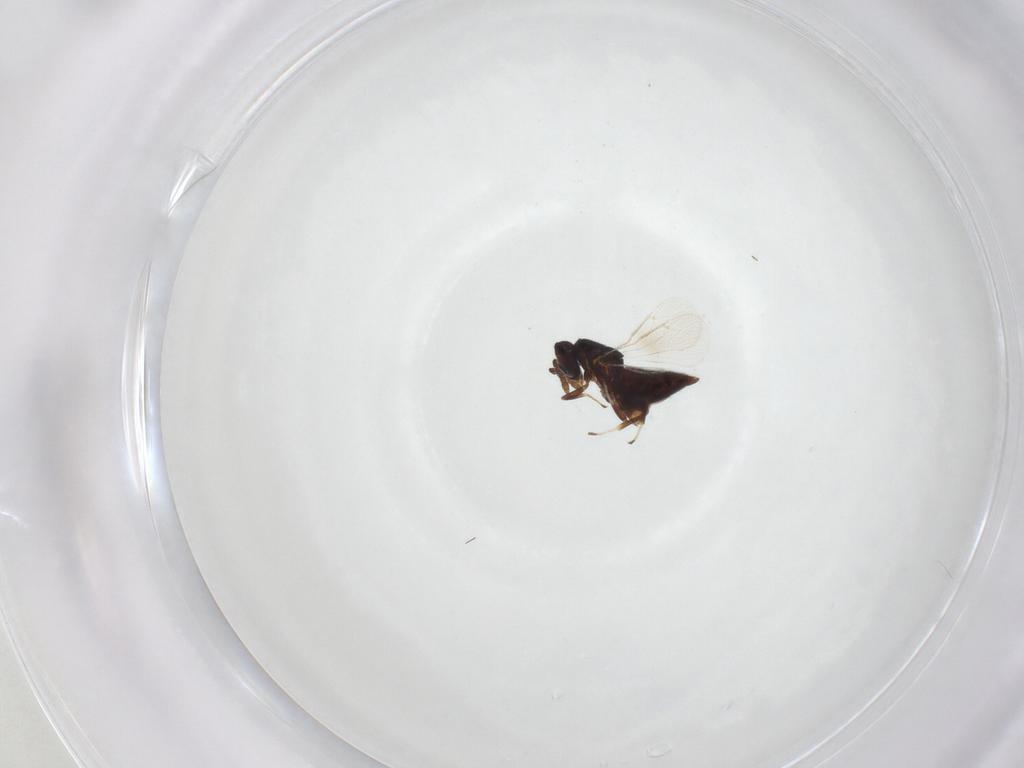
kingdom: Animalia
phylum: Arthropoda
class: Insecta
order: Hymenoptera
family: Trichogrammatidae
